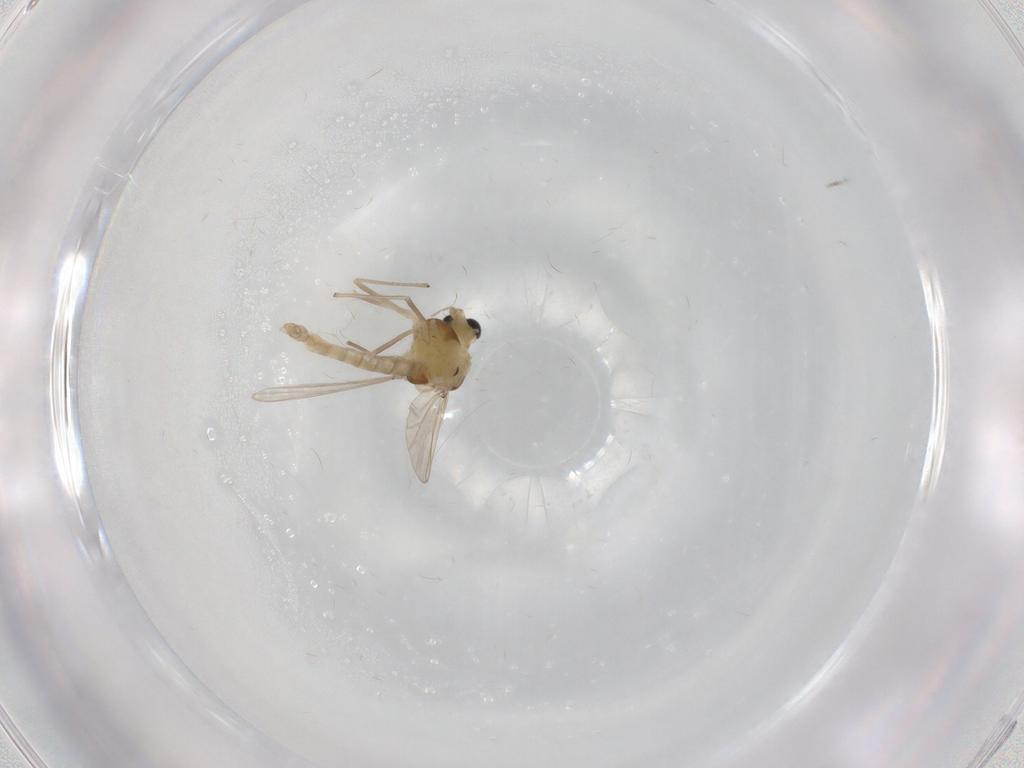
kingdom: Animalia
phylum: Arthropoda
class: Insecta
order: Diptera
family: Chironomidae
